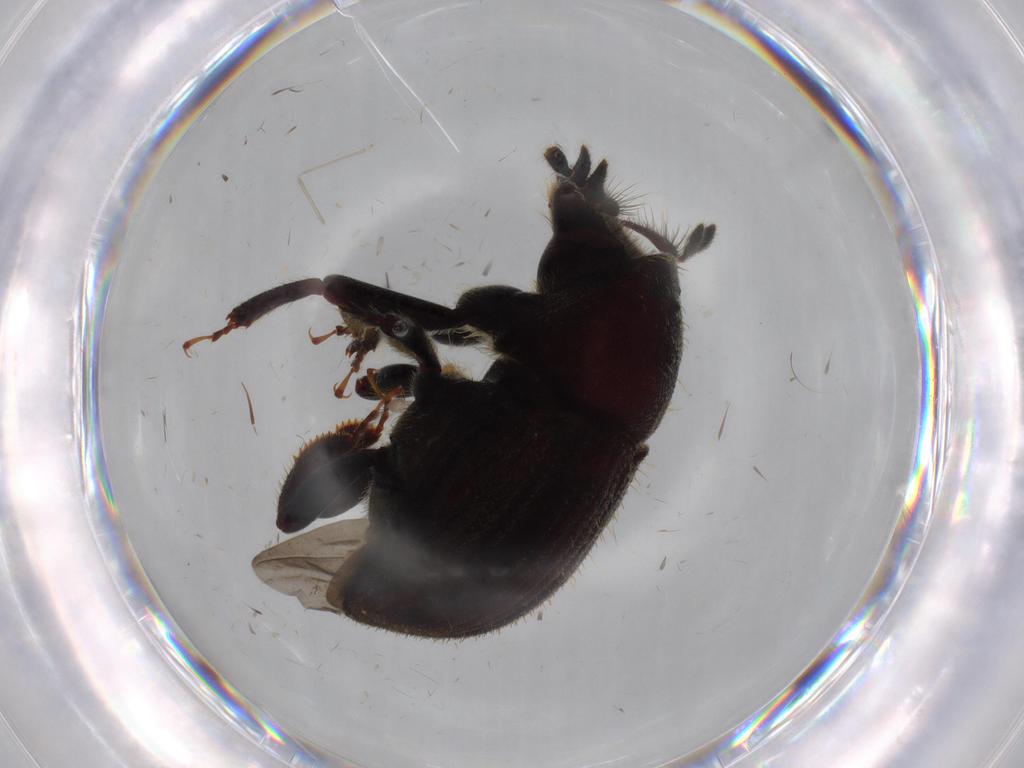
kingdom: Animalia
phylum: Arthropoda
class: Insecta
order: Coleoptera
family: Curculionidae
